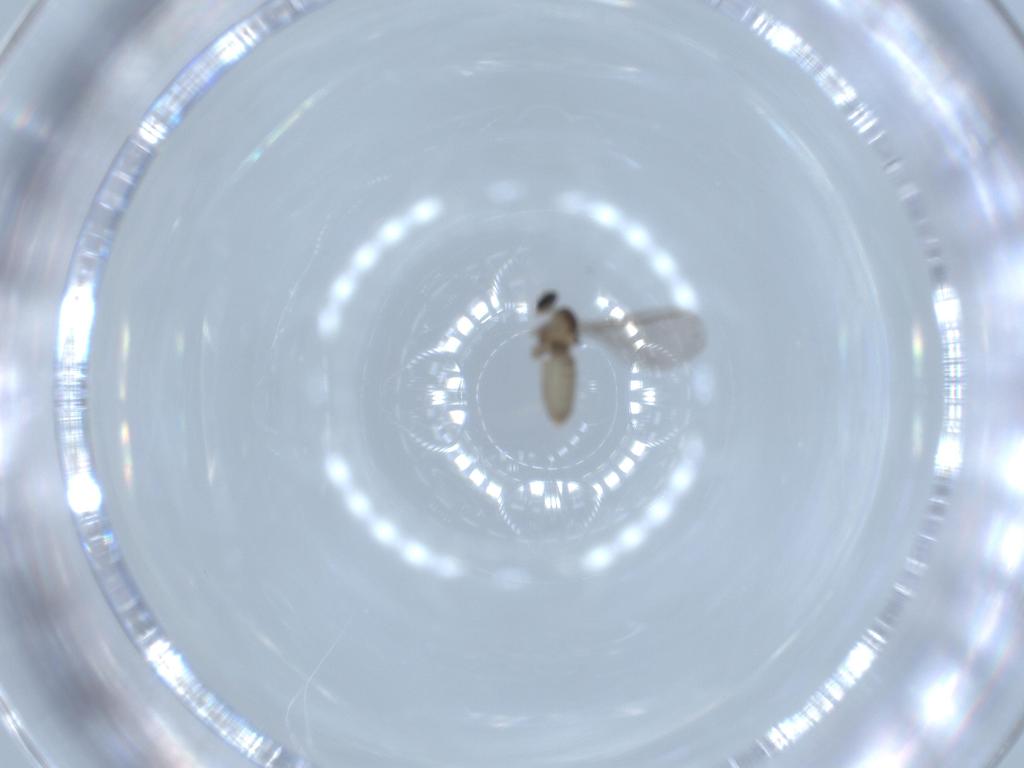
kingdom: Animalia
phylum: Arthropoda
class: Insecta
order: Diptera
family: Cecidomyiidae
